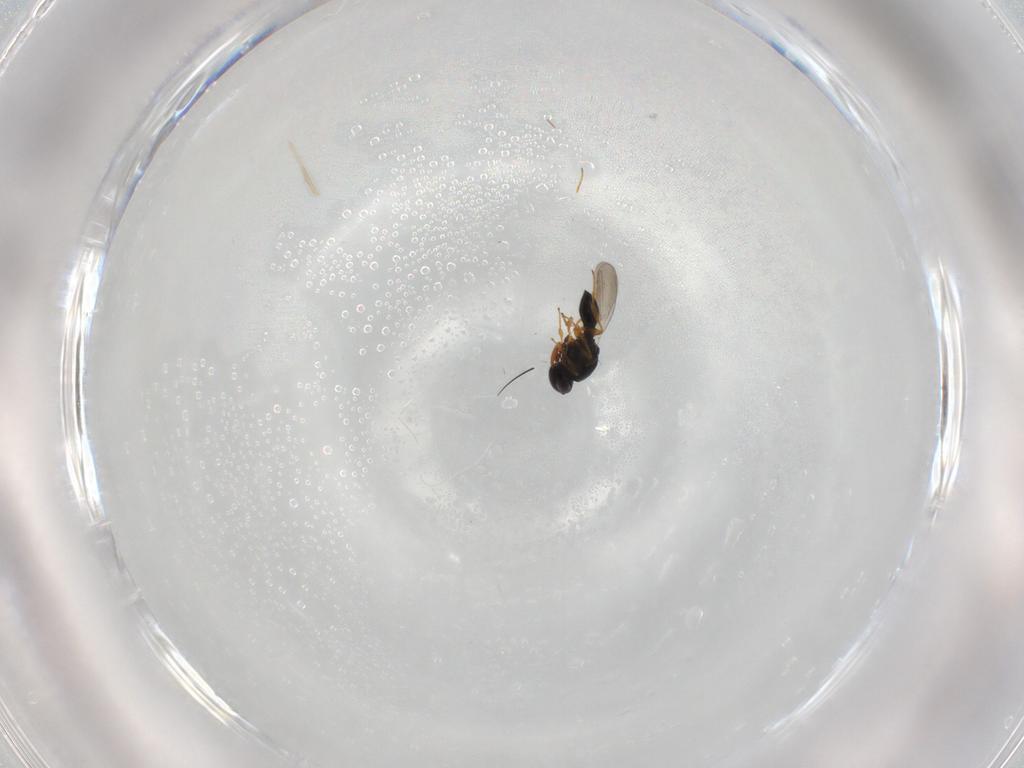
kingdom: Animalia
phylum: Arthropoda
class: Insecta
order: Hymenoptera
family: Platygastridae
